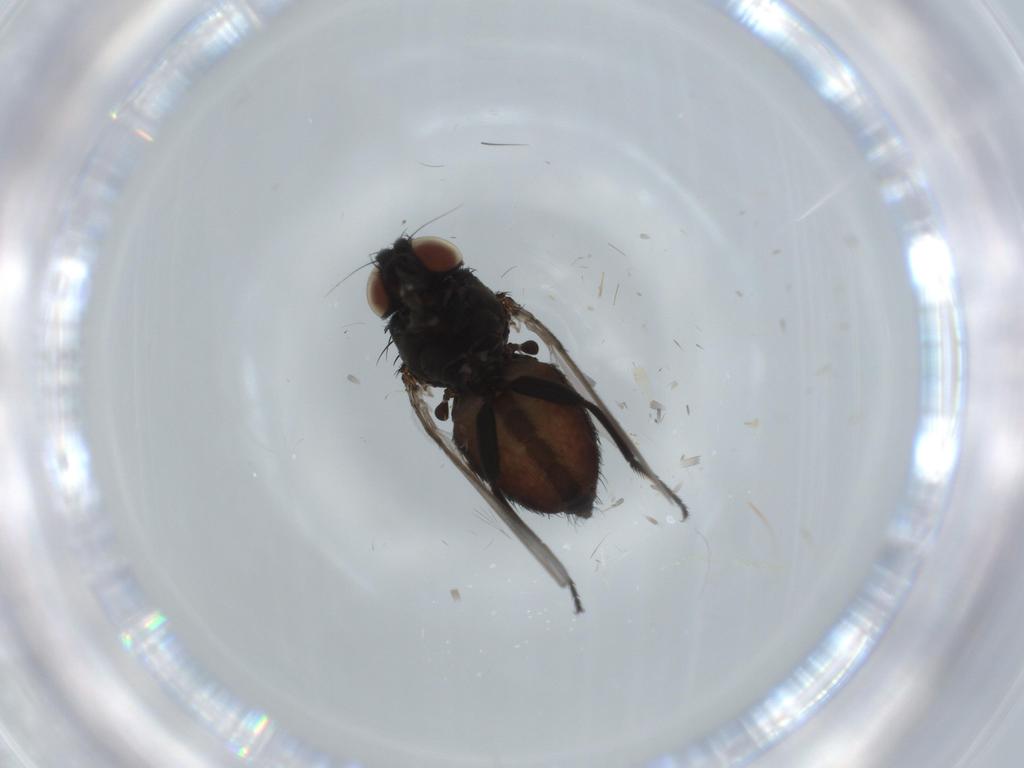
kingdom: Animalia
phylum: Arthropoda
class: Insecta
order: Diptera
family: Milichiidae
